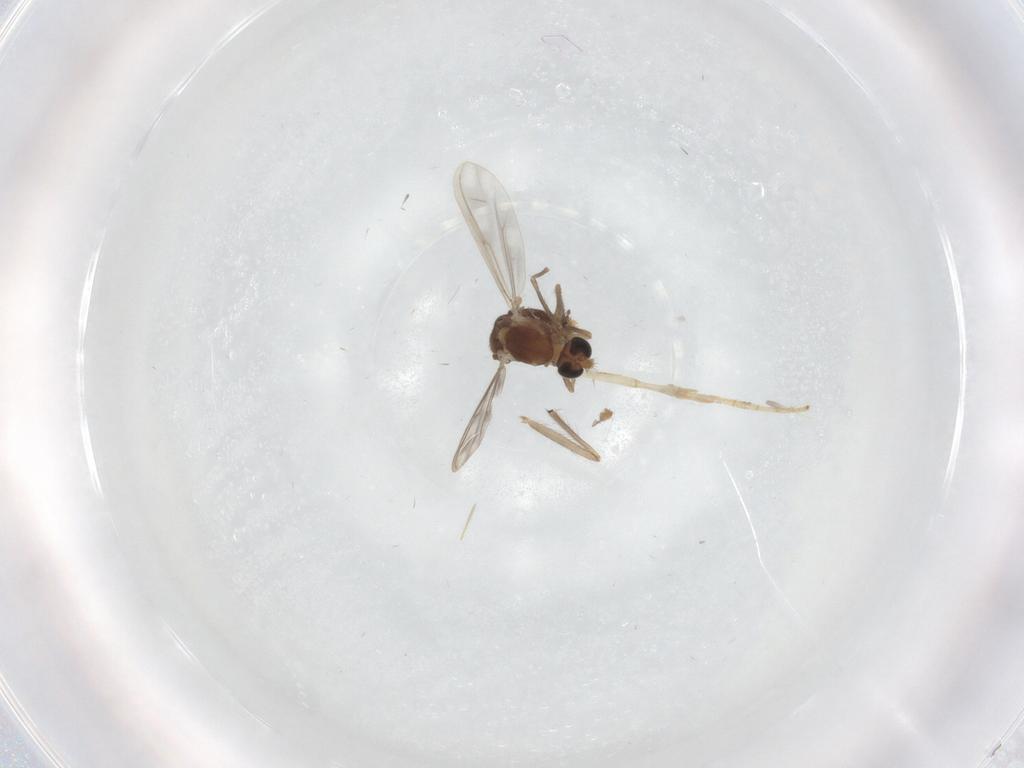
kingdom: Animalia
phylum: Arthropoda
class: Insecta
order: Diptera
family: Chironomidae
